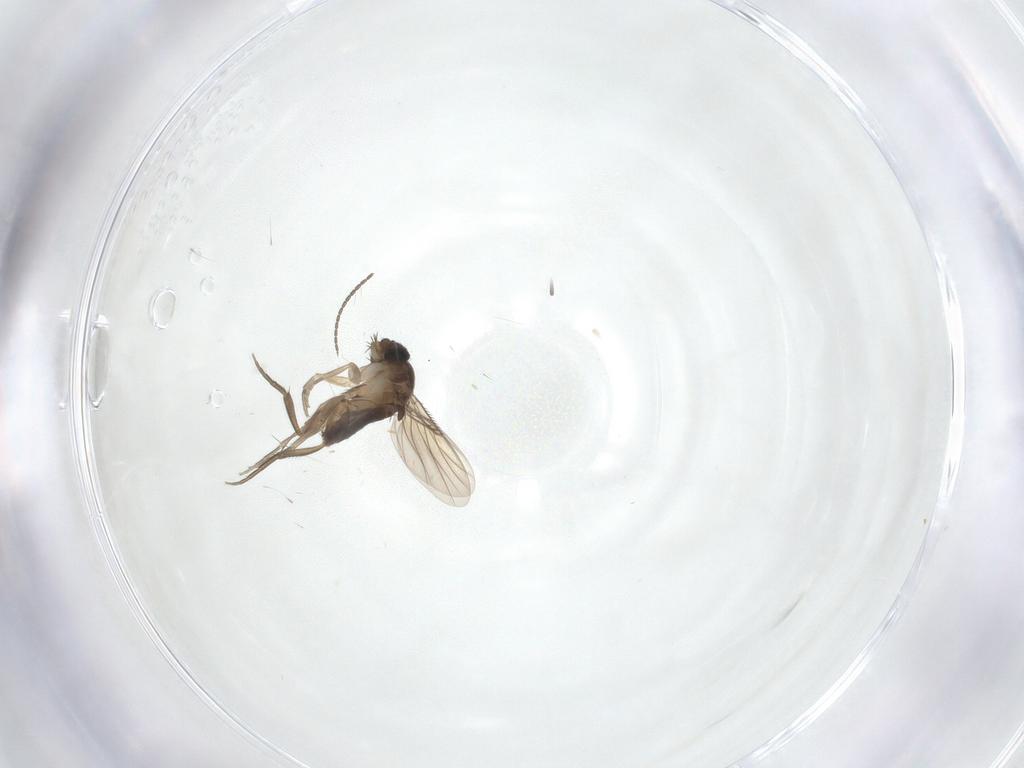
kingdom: Animalia
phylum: Arthropoda
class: Insecta
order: Diptera
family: Phoridae
